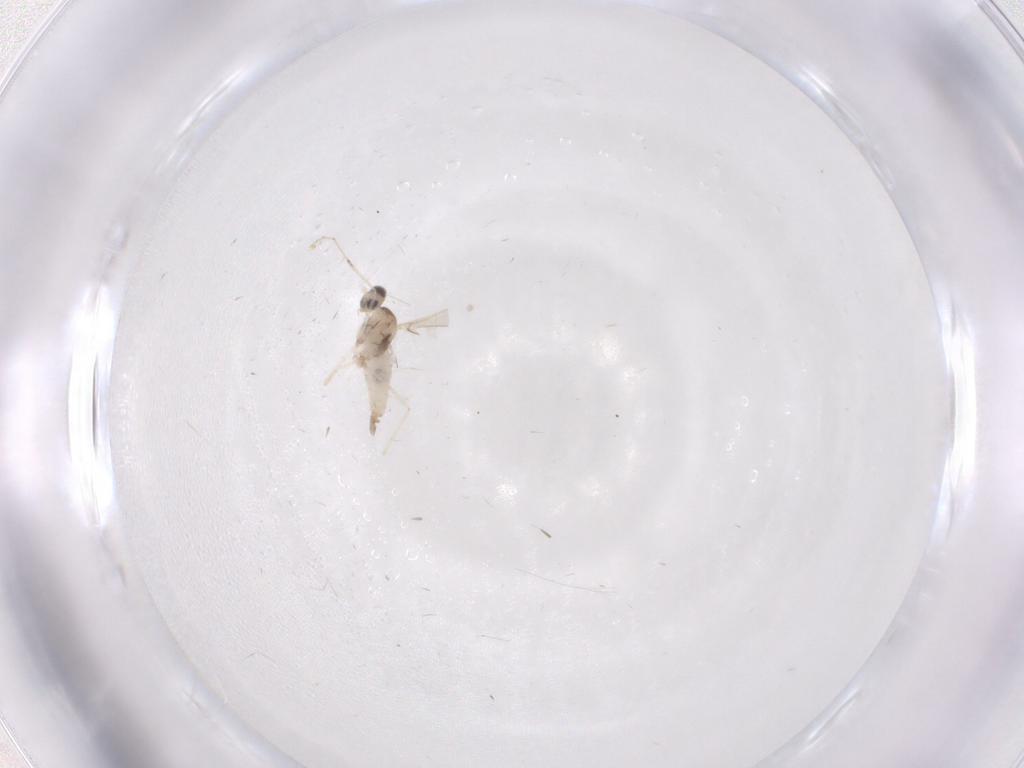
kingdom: Animalia
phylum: Arthropoda
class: Insecta
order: Diptera
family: Cecidomyiidae
